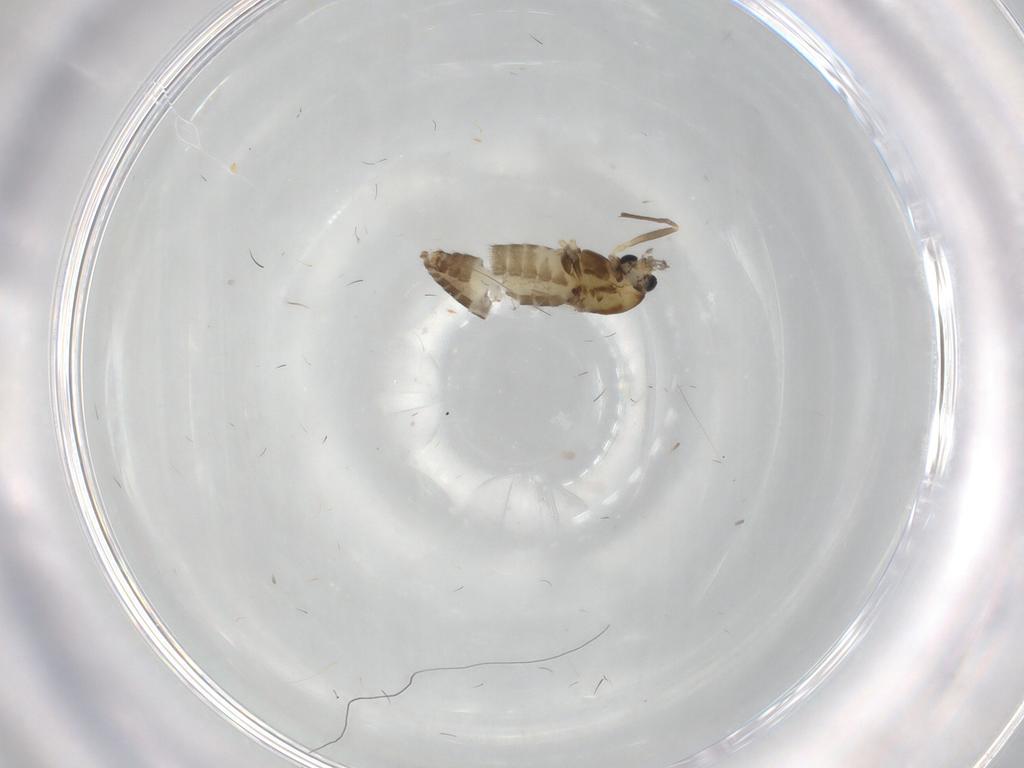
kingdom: Animalia
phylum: Arthropoda
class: Insecta
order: Diptera
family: Chironomidae
